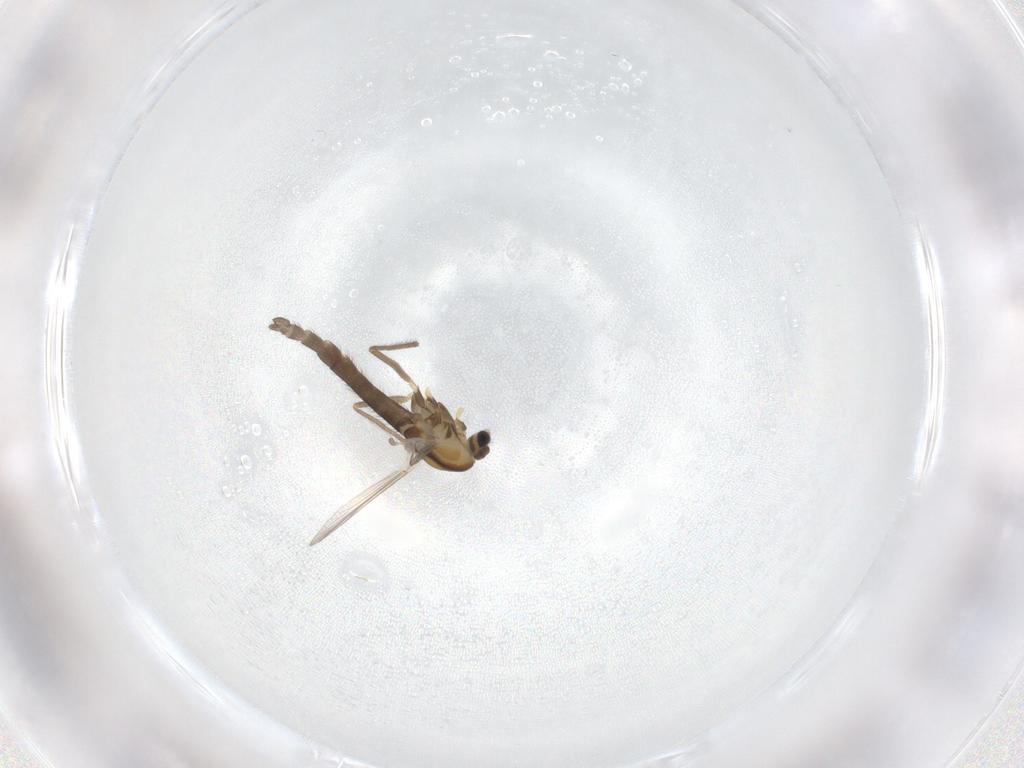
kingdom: Animalia
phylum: Arthropoda
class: Insecta
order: Diptera
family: Chironomidae
